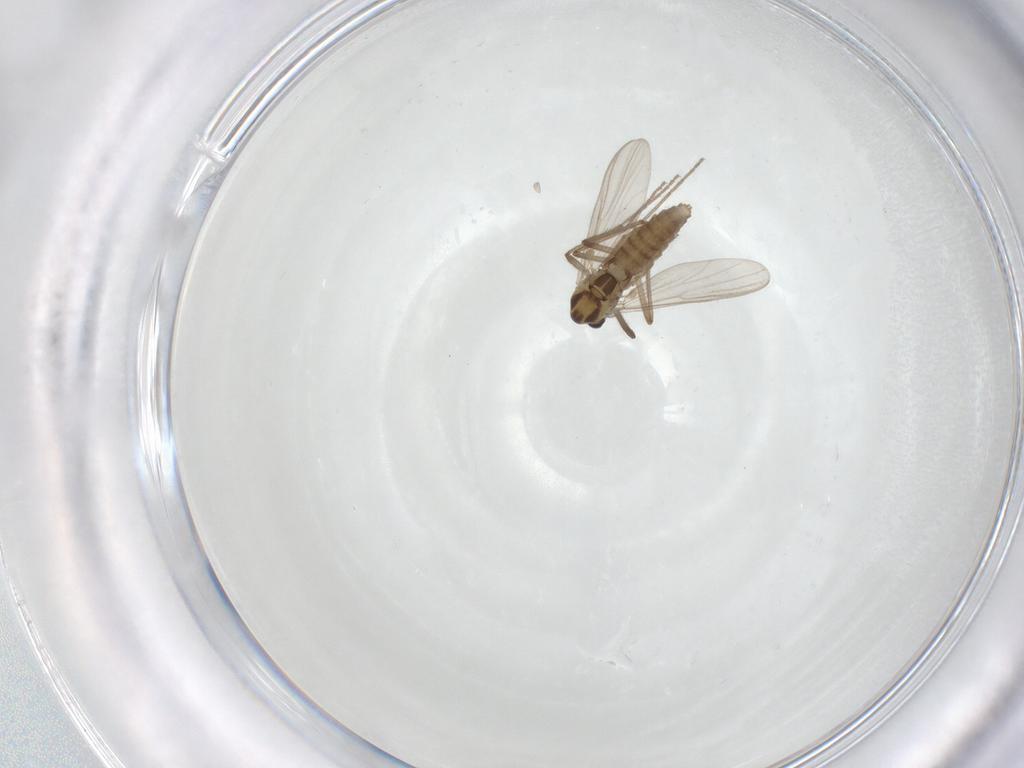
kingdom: Animalia
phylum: Arthropoda
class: Insecta
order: Diptera
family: Chironomidae
